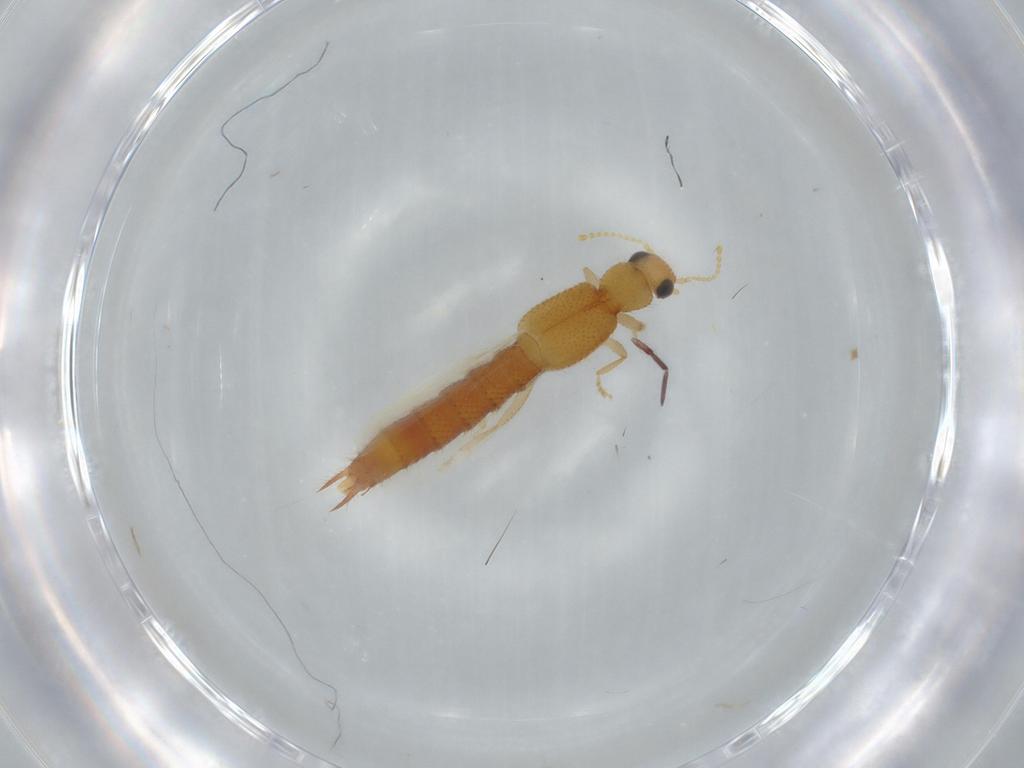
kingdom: Animalia
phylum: Arthropoda
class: Insecta
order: Coleoptera
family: Staphylinidae
